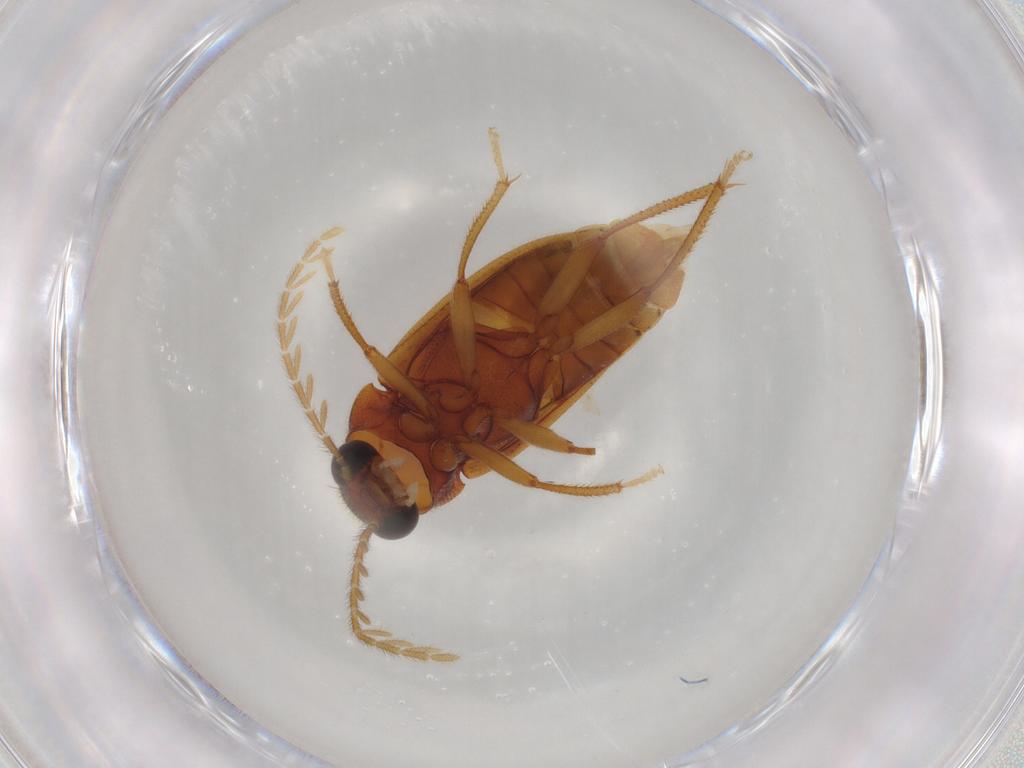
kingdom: Animalia
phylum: Arthropoda
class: Insecta
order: Coleoptera
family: Ptilodactylidae
